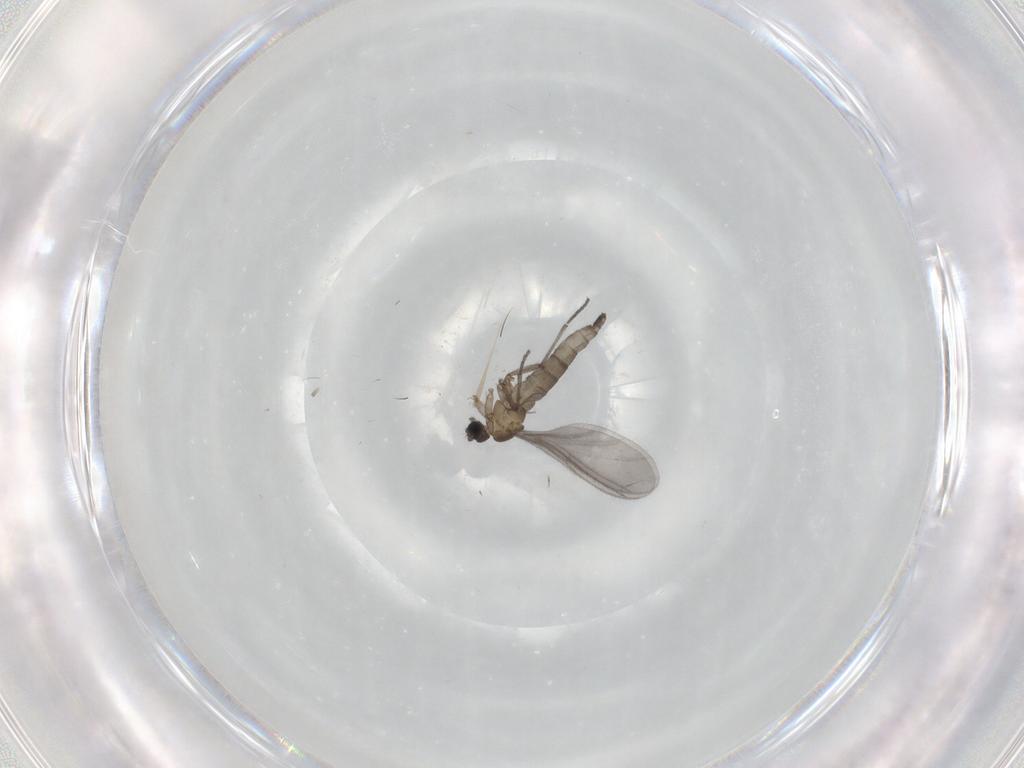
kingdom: Animalia
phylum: Arthropoda
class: Insecta
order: Diptera
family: Sciaridae
